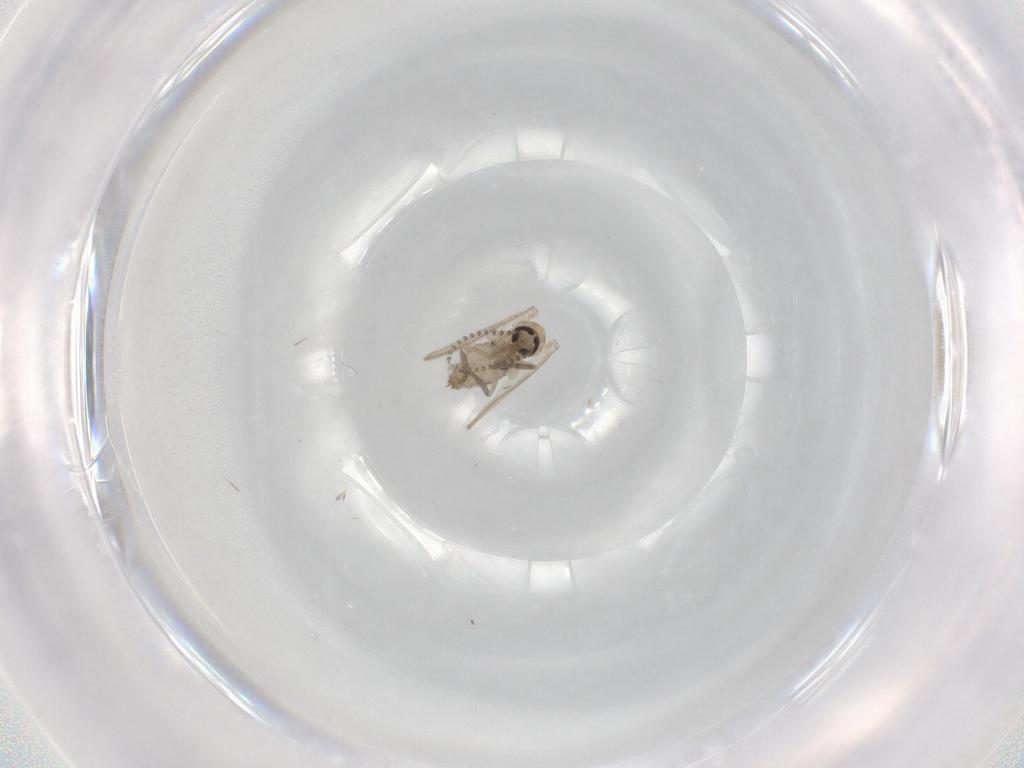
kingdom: Animalia
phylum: Arthropoda
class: Insecta
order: Diptera
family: Psychodidae
